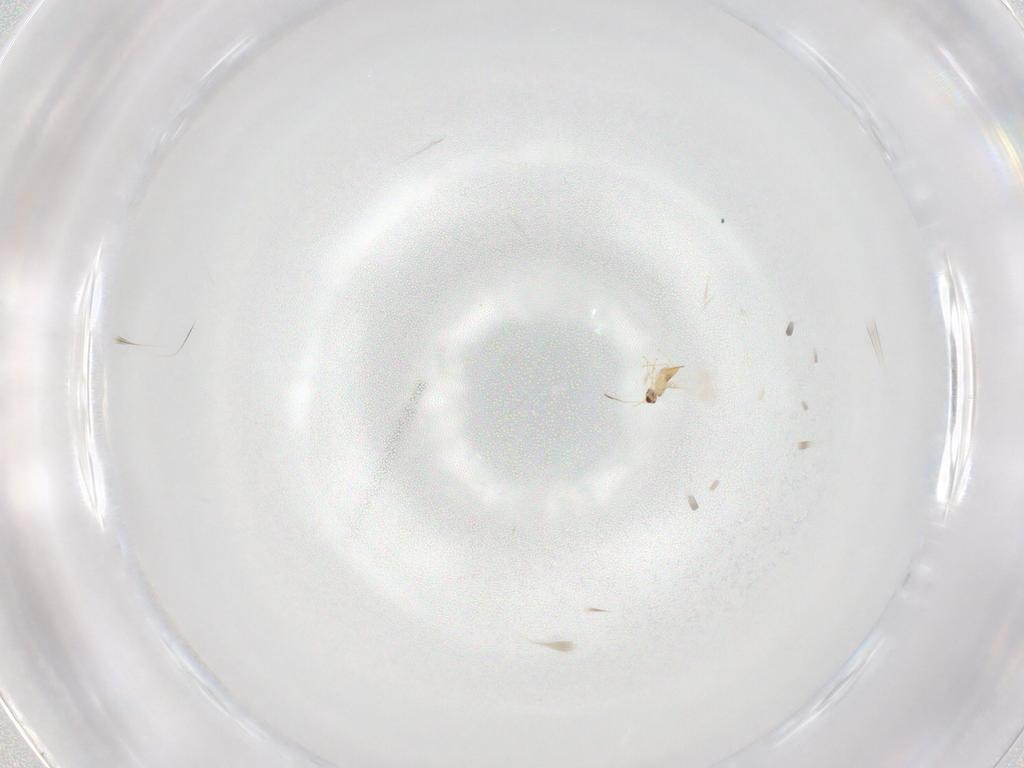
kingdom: Animalia
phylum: Arthropoda
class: Insecta
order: Hymenoptera
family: Mymaridae
